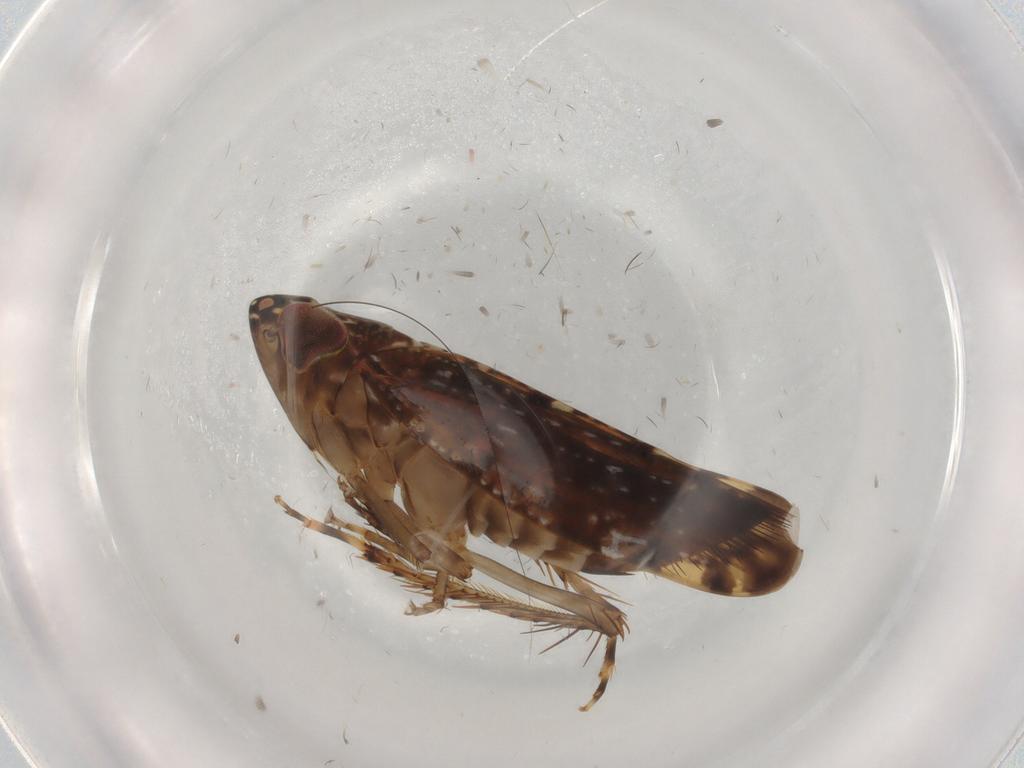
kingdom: Animalia
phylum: Arthropoda
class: Insecta
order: Hemiptera
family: Cicadellidae
